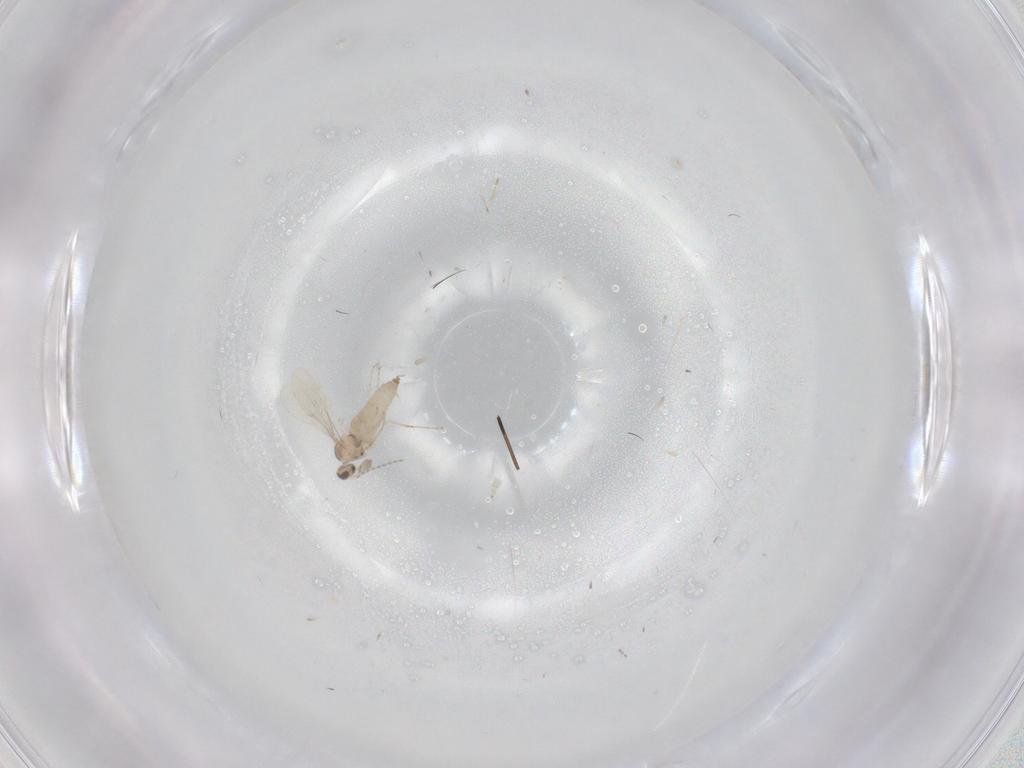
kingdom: Animalia
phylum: Arthropoda
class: Insecta
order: Diptera
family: Cecidomyiidae
